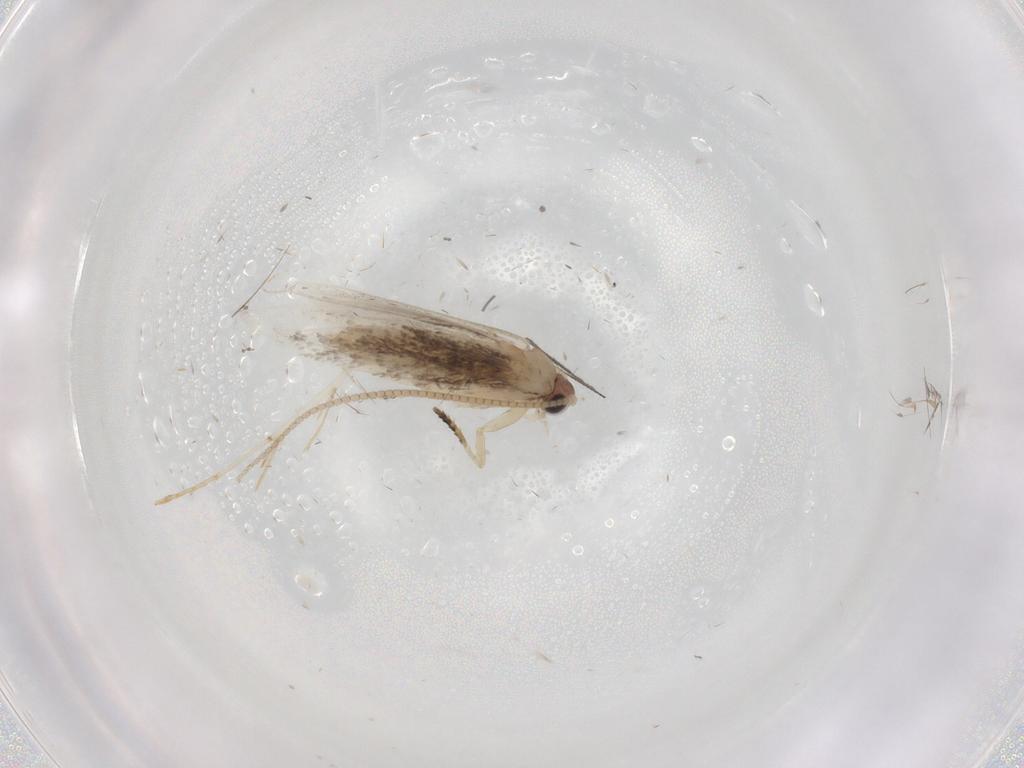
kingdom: Animalia
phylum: Arthropoda
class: Insecta
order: Lepidoptera
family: Tineidae
